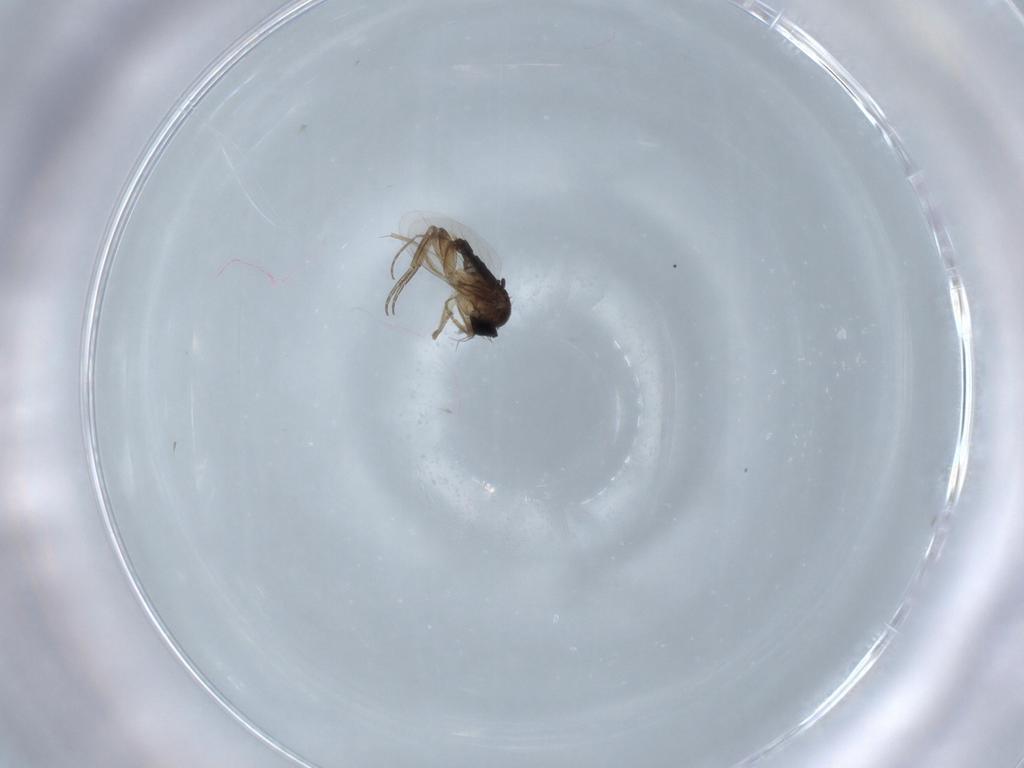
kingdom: Animalia
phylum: Arthropoda
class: Insecta
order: Diptera
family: Phoridae
